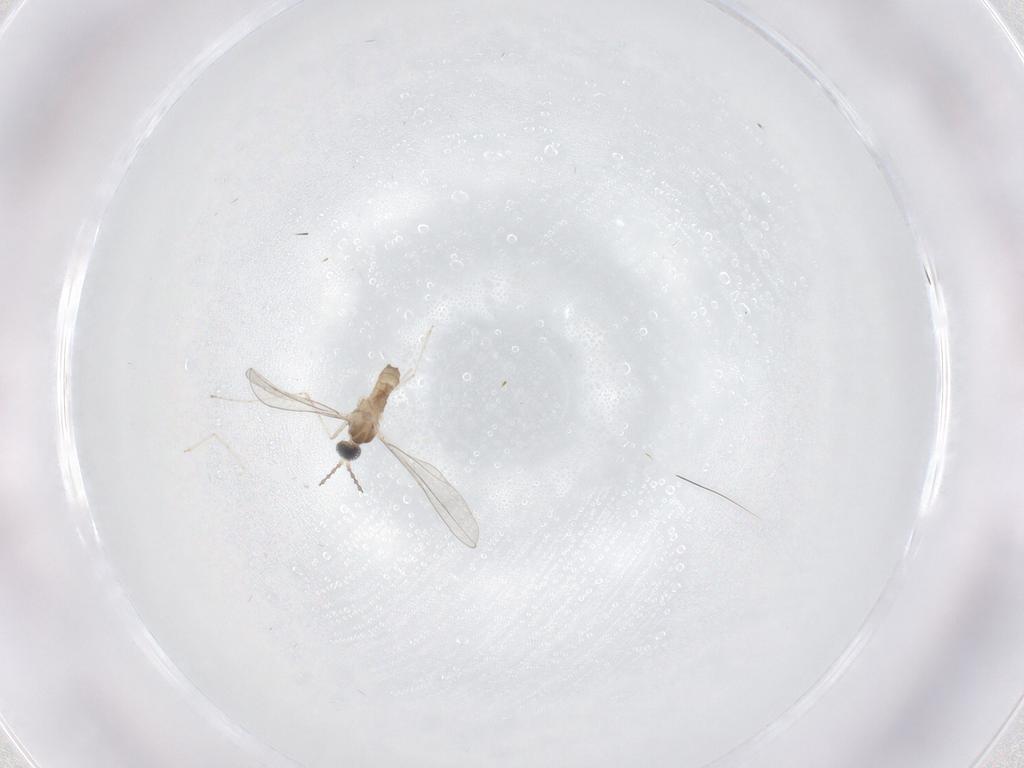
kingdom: Animalia
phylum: Arthropoda
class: Insecta
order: Diptera
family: Cecidomyiidae
